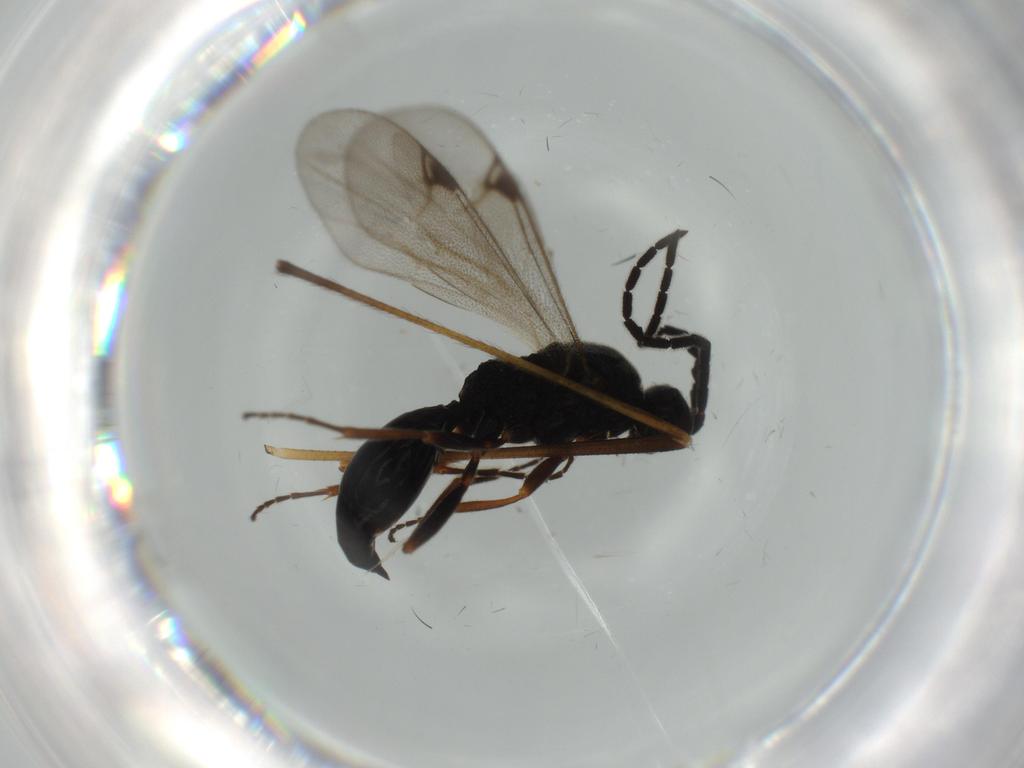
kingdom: Animalia
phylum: Arthropoda
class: Insecta
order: Hymenoptera
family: Proctotrupidae
